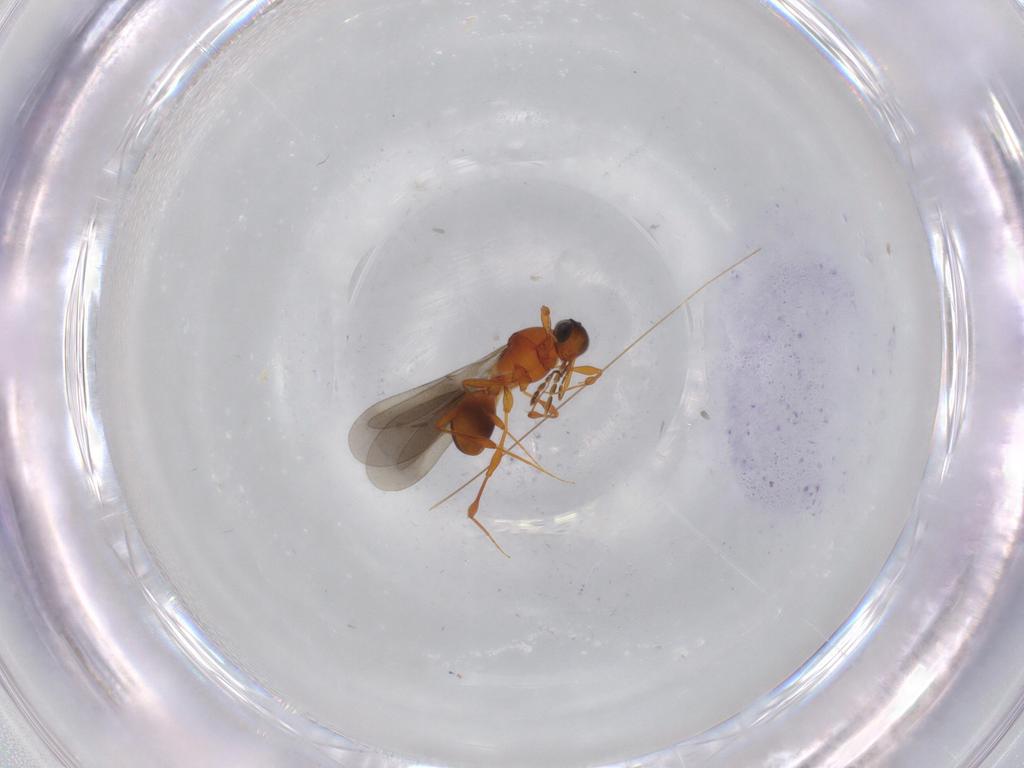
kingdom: Animalia
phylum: Arthropoda
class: Insecta
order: Hymenoptera
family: Platygastridae
